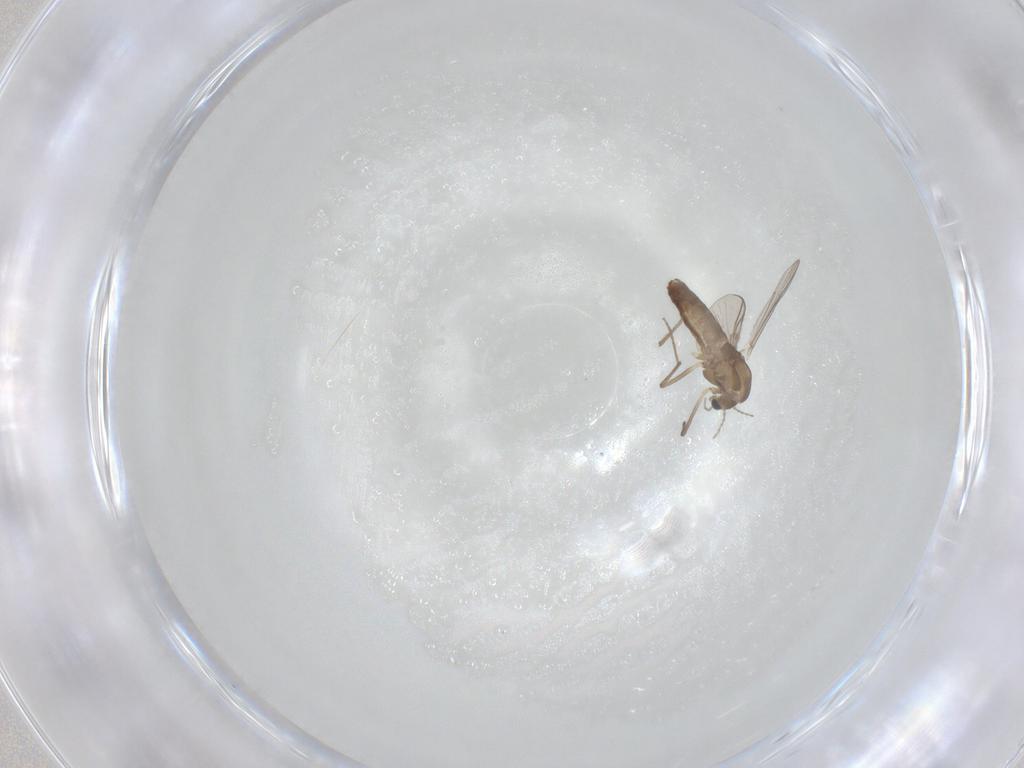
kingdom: Animalia
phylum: Arthropoda
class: Insecta
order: Diptera
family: Chironomidae
